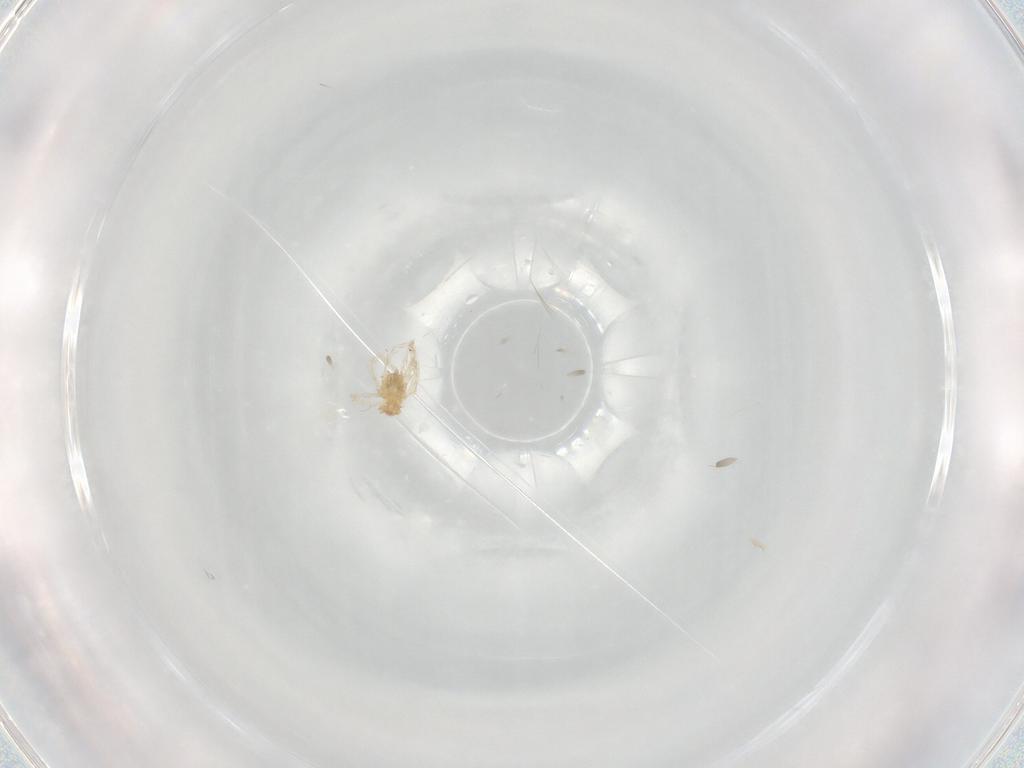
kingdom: Animalia
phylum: Arthropoda
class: Arachnida
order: Trombidiformes
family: Erythraeidae
